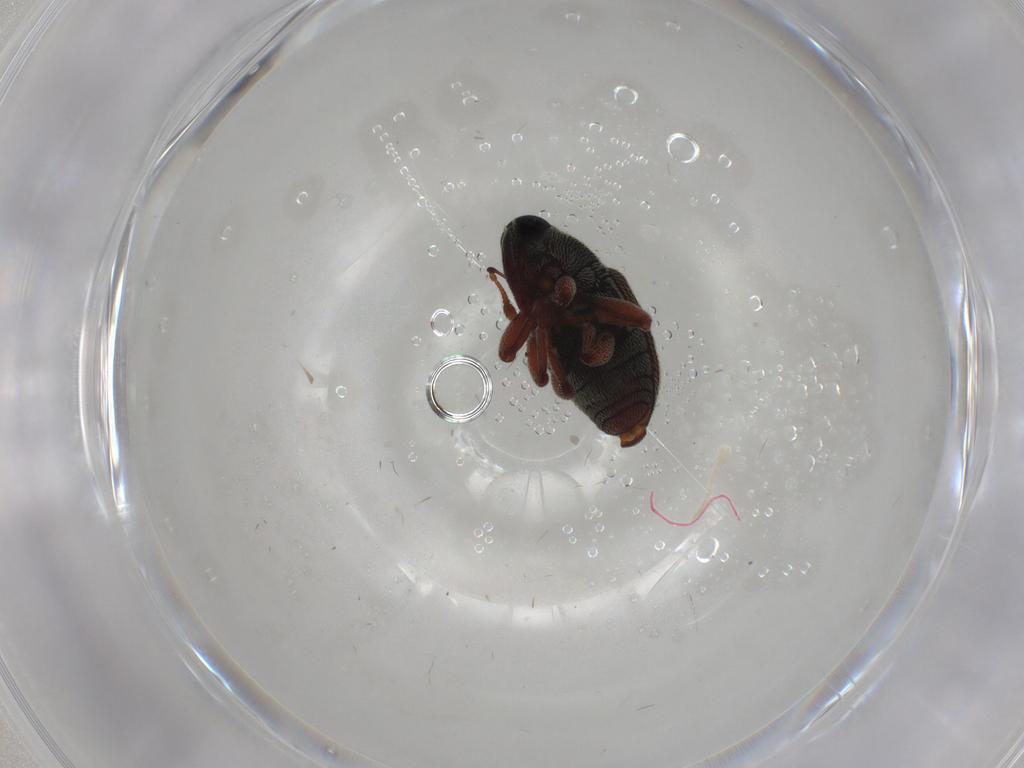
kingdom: Animalia
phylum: Arthropoda
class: Insecta
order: Coleoptera
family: Chrysomelidae
